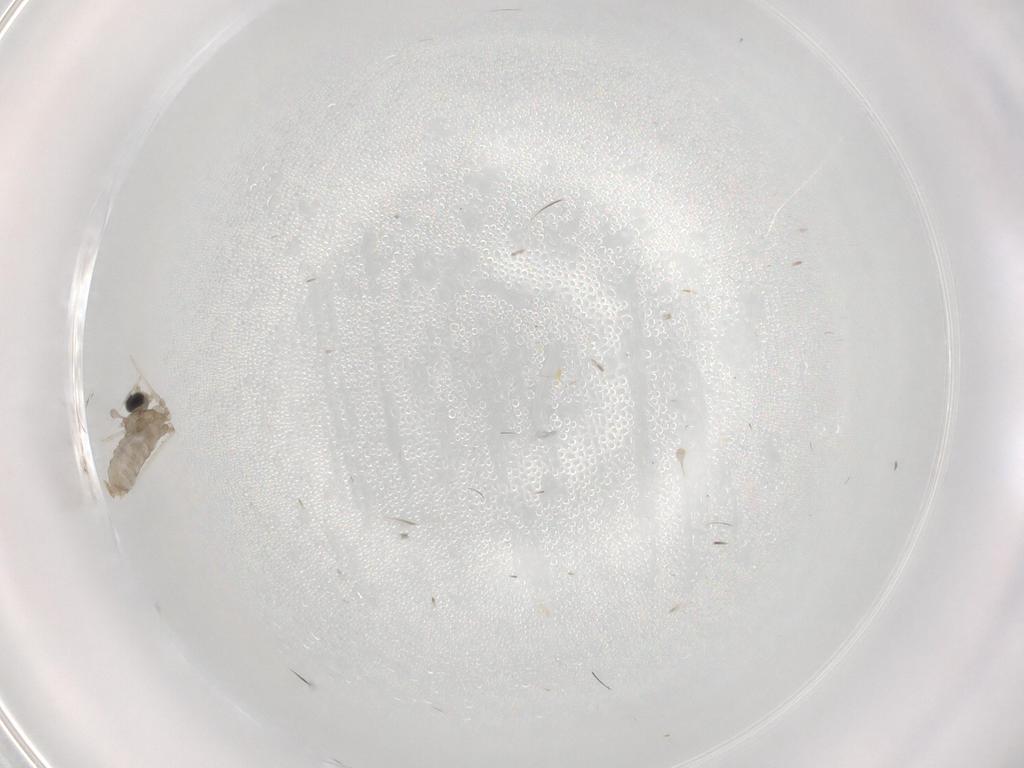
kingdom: Animalia
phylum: Arthropoda
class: Insecta
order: Diptera
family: Cecidomyiidae
